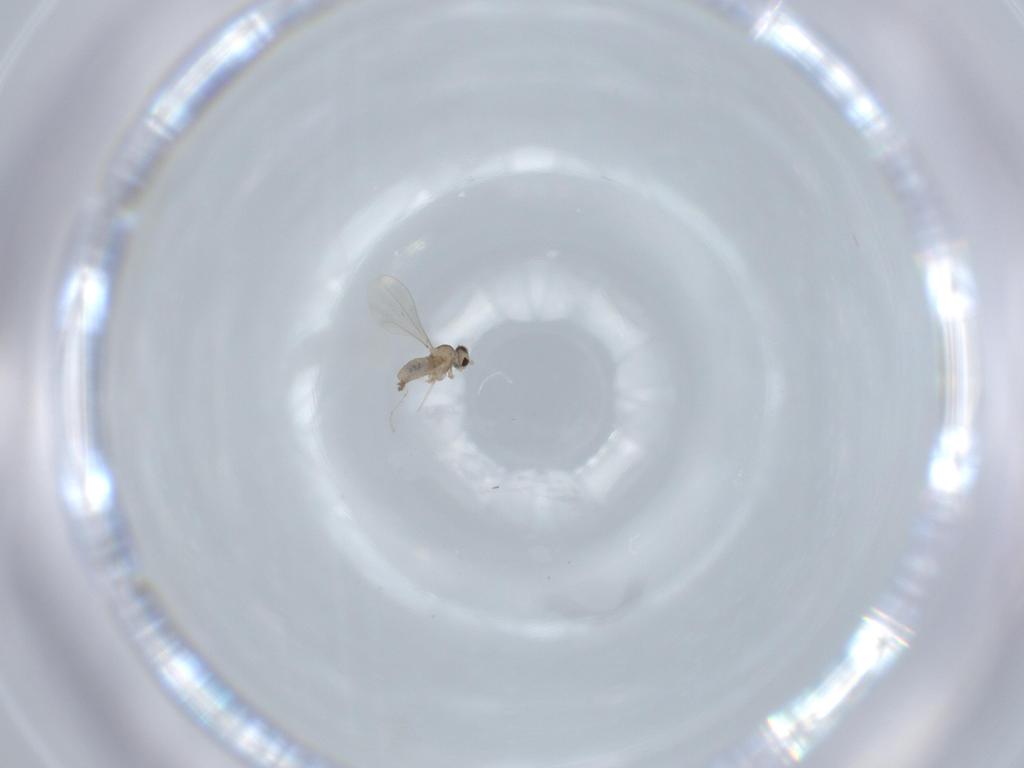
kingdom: Animalia
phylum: Arthropoda
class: Insecta
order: Diptera
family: Cecidomyiidae
